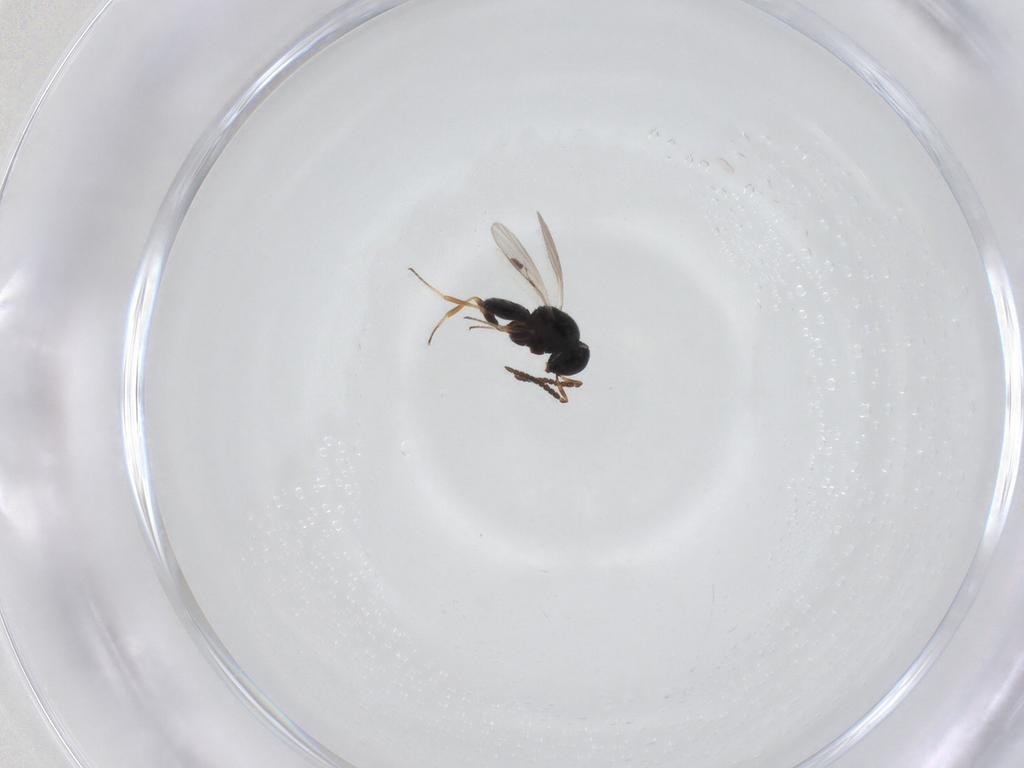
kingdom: Animalia
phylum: Arthropoda
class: Insecta
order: Hymenoptera
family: Scelionidae
